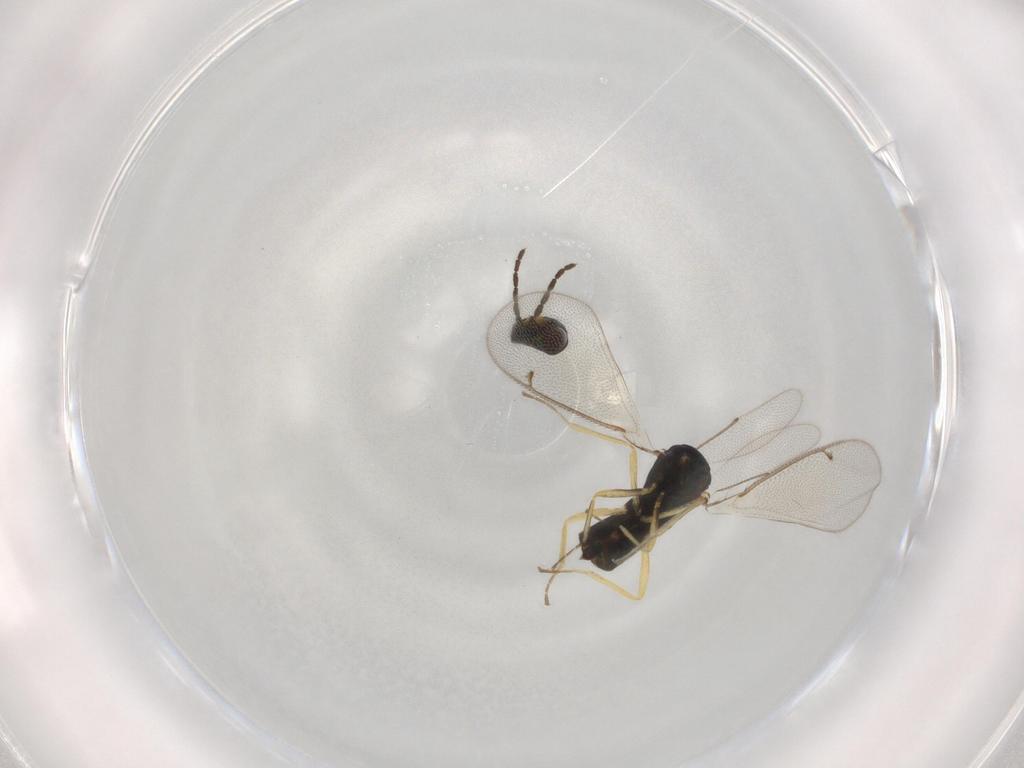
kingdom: Animalia
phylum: Arthropoda
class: Insecta
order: Hymenoptera
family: Eulophidae
